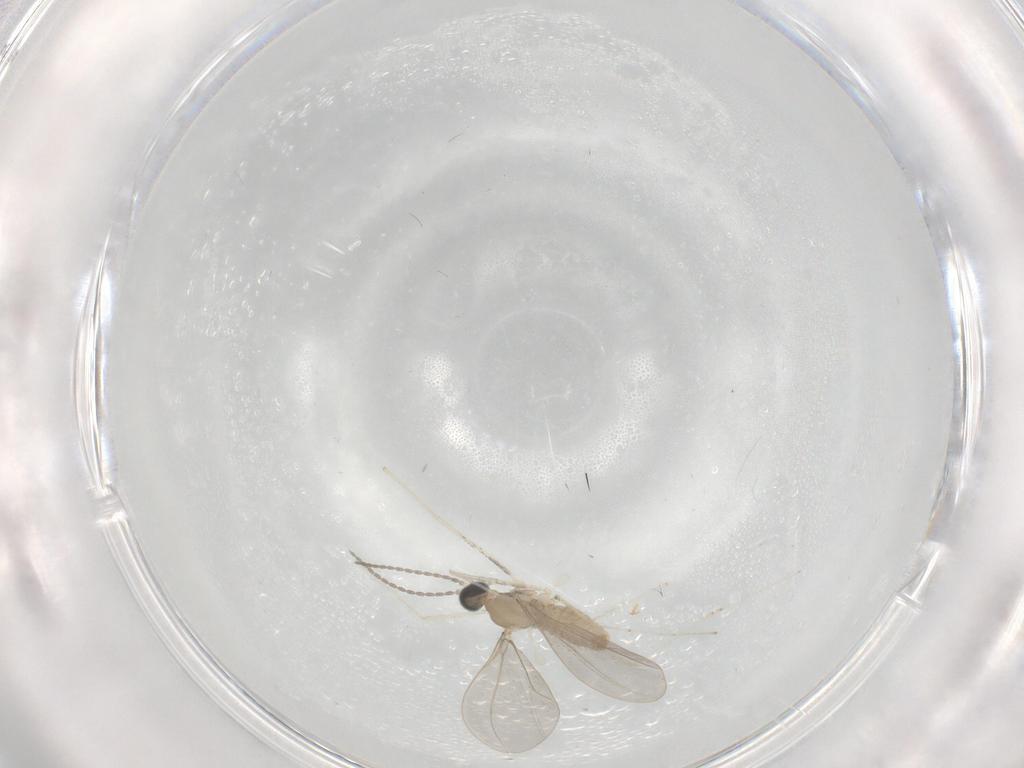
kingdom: Animalia
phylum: Arthropoda
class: Insecta
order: Diptera
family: Cecidomyiidae
